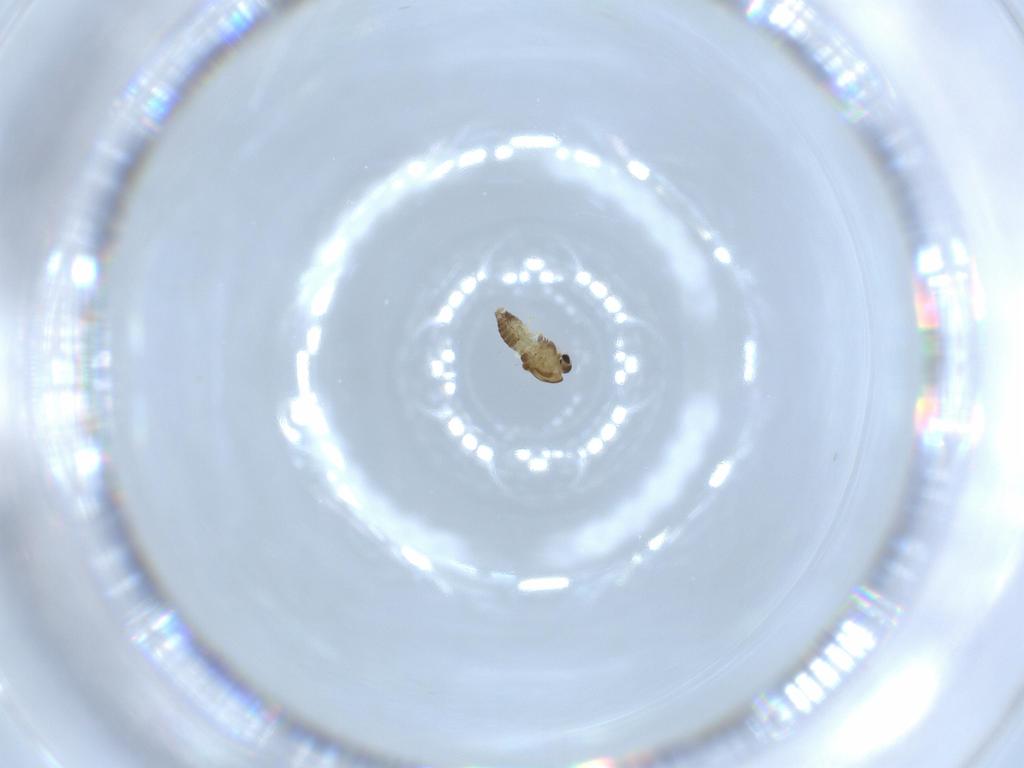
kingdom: Animalia
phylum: Arthropoda
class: Insecta
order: Diptera
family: Chironomidae
